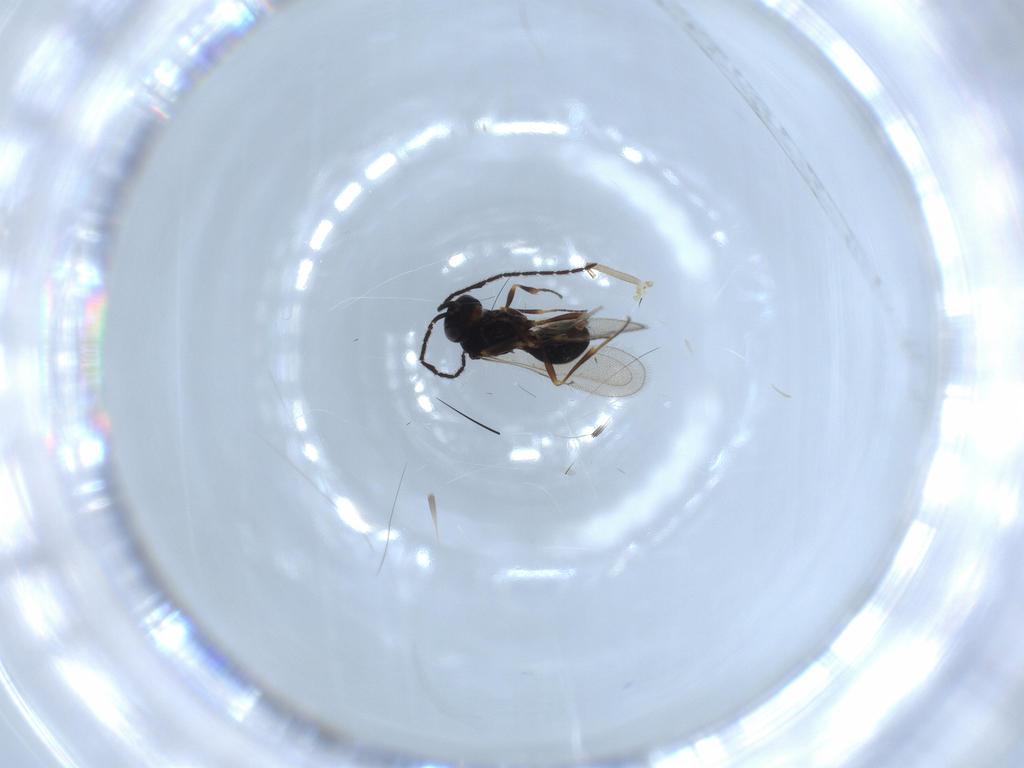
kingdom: Animalia
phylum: Arthropoda
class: Insecta
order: Hymenoptera
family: Scelionidae
